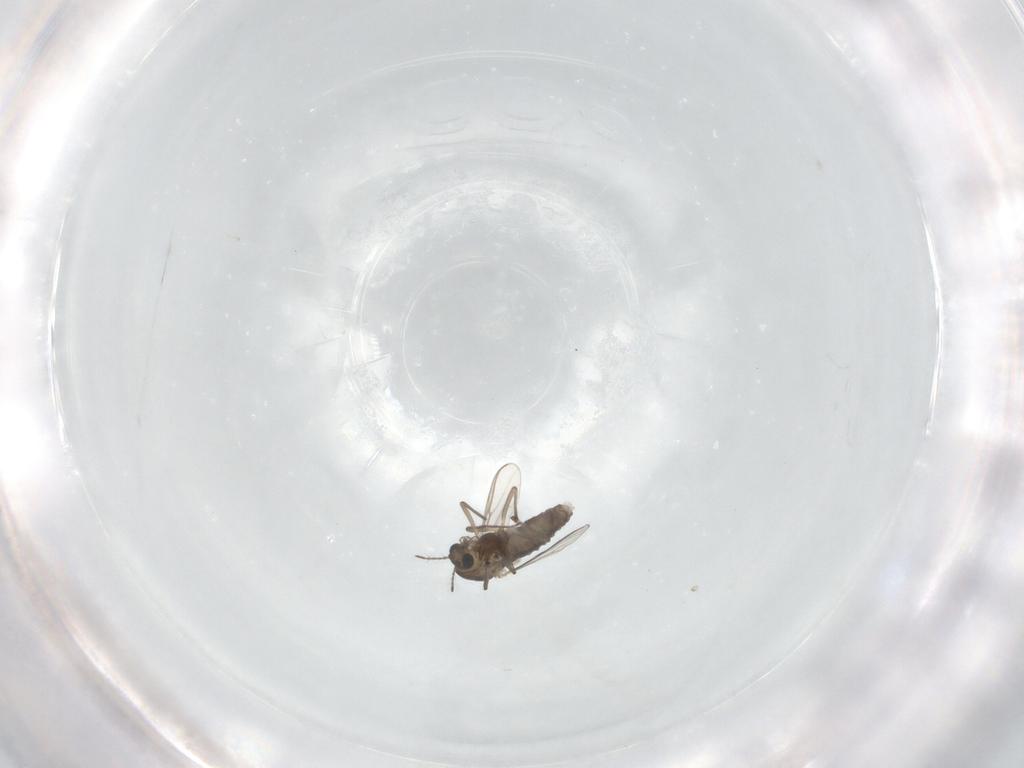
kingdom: Animalia
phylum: Arthropoda
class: Insecta
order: Diptera
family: Chironomidae
